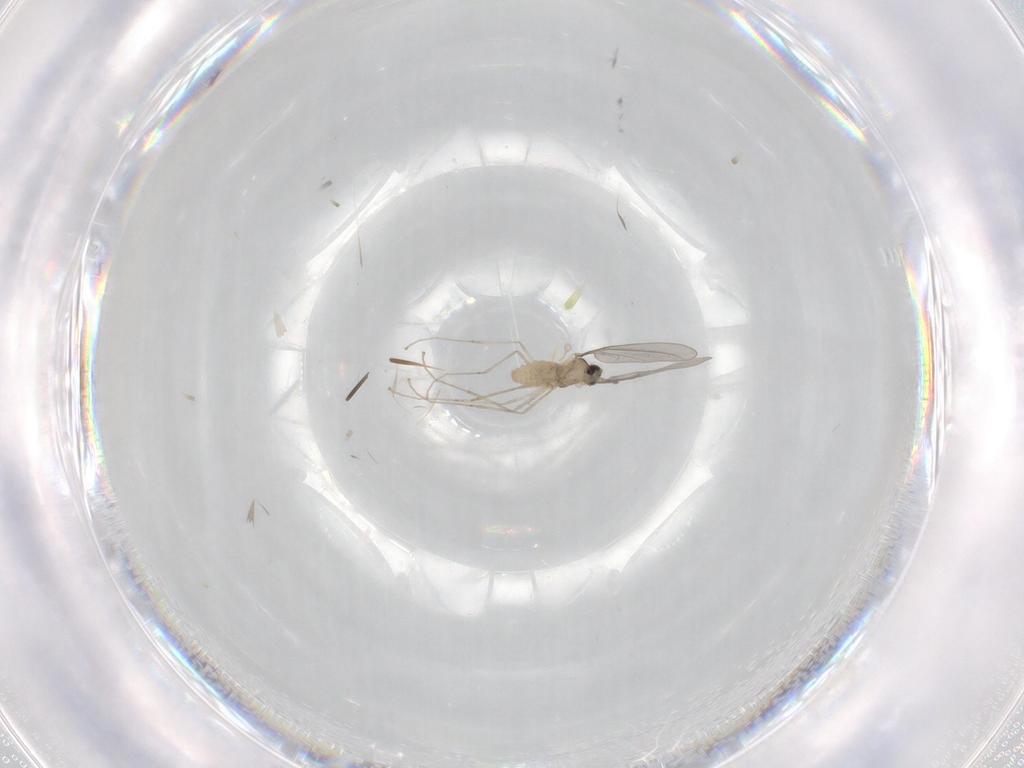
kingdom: Animalia
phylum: Arthropoda
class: Insecta
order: Diptera
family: Cecidomyiidae
